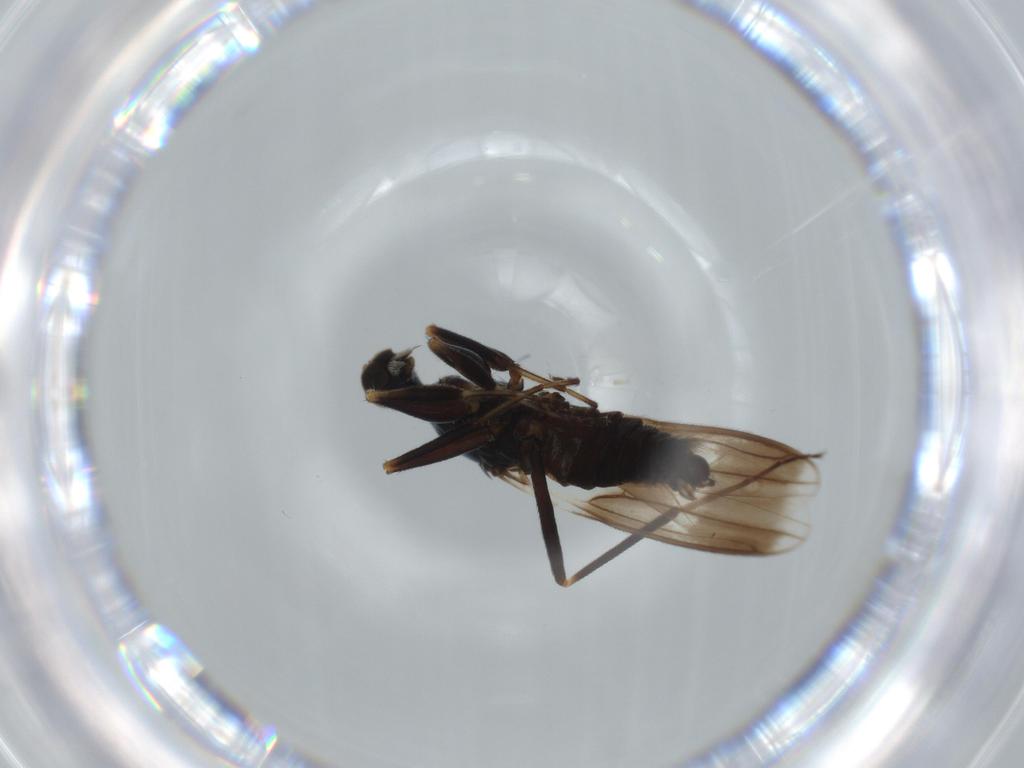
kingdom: Animalia
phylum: Arthropoda
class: Insecta
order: Diptera
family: Hybotidae
